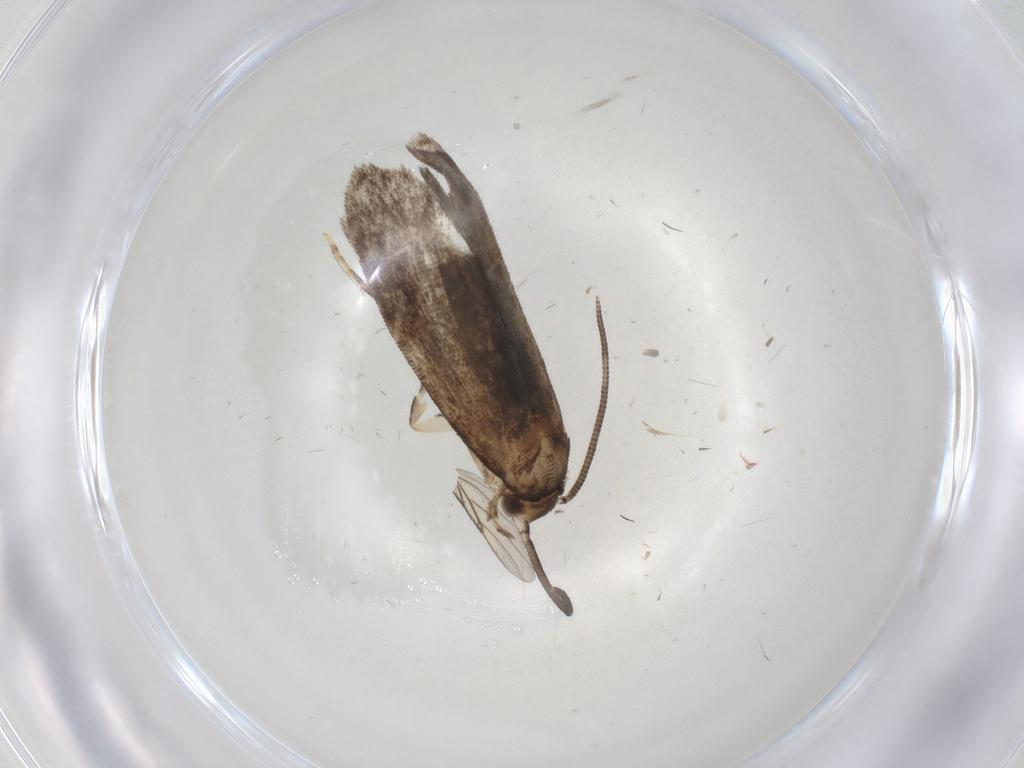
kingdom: Animalia
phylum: Arthropoda
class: Insecta
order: Lepidoptera
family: Dryadaulidae
